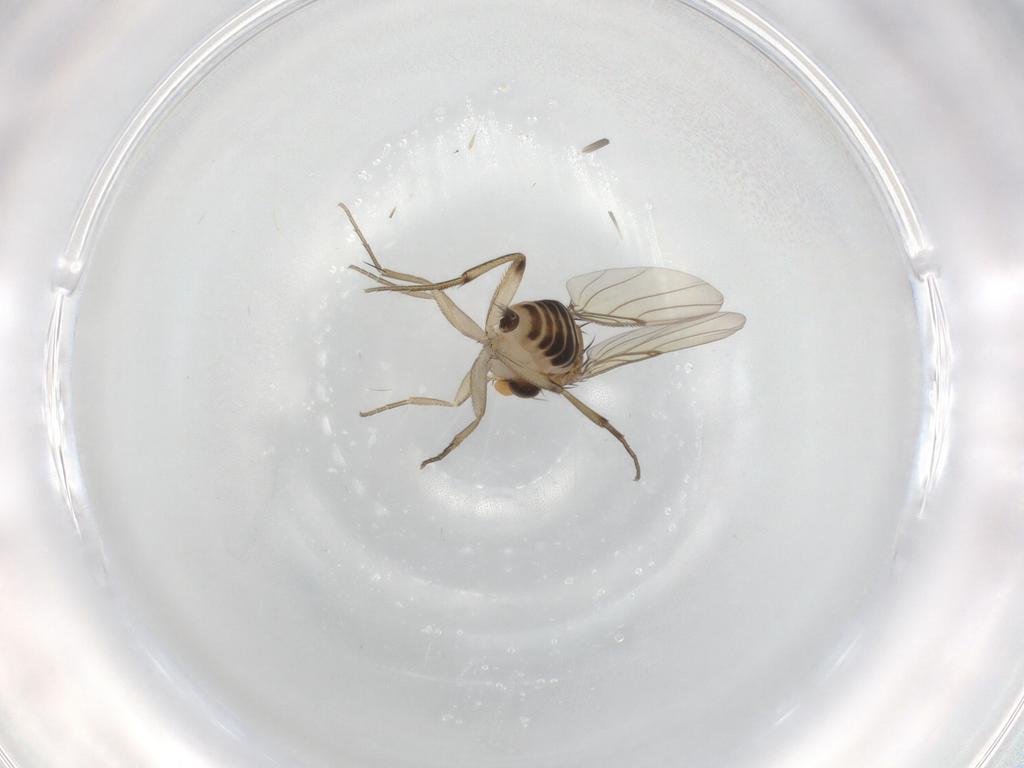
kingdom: Animalia
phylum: Arthropoda
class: Insecta
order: Diptera
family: Phoridae
